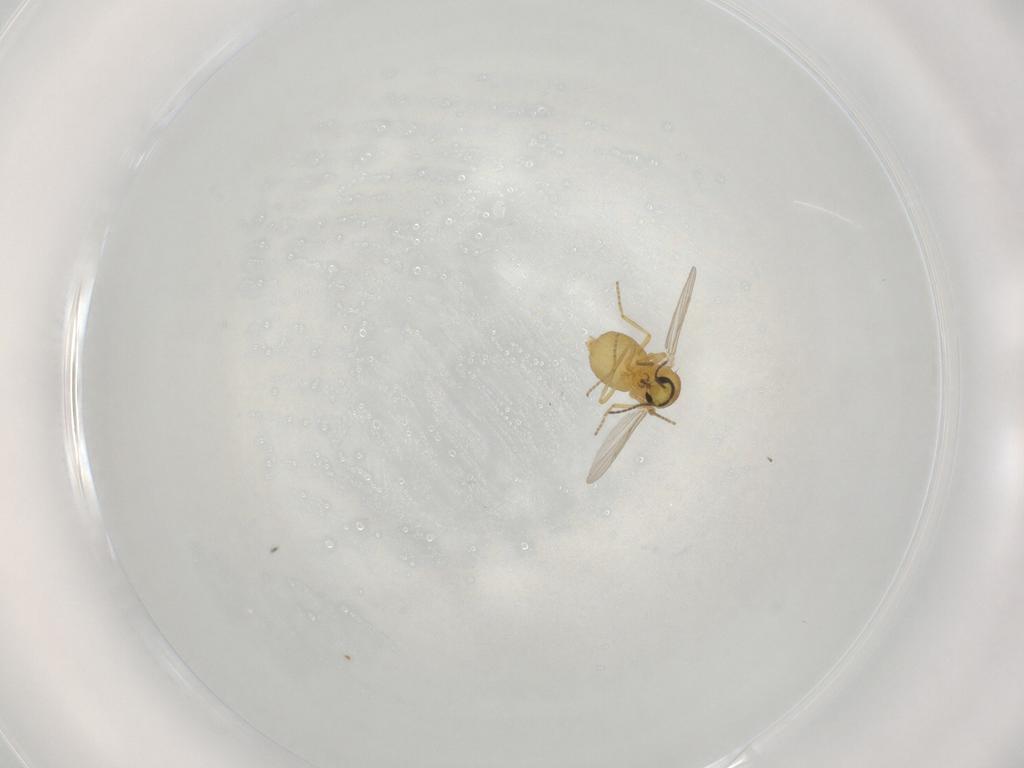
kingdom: Animalia
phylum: Arthropoda
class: Insecta
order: Diptera
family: Ceratopogonidae
